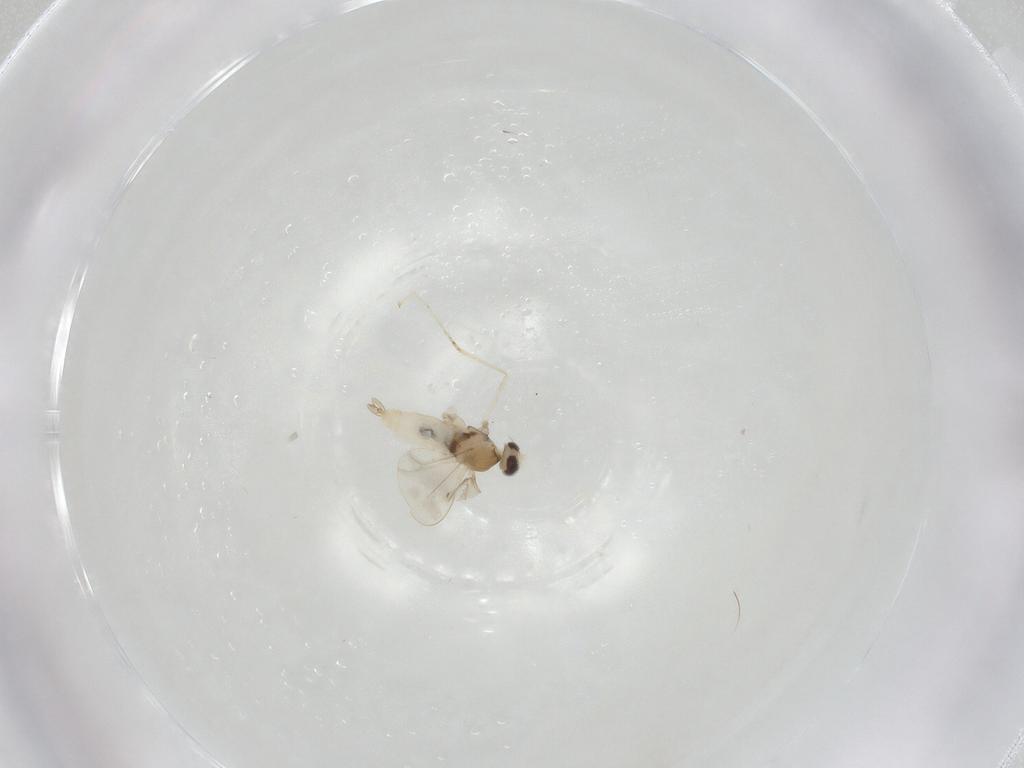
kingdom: Animalia
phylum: Arthropoda
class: Insecta
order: Diptera
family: Cecidomyiidae
